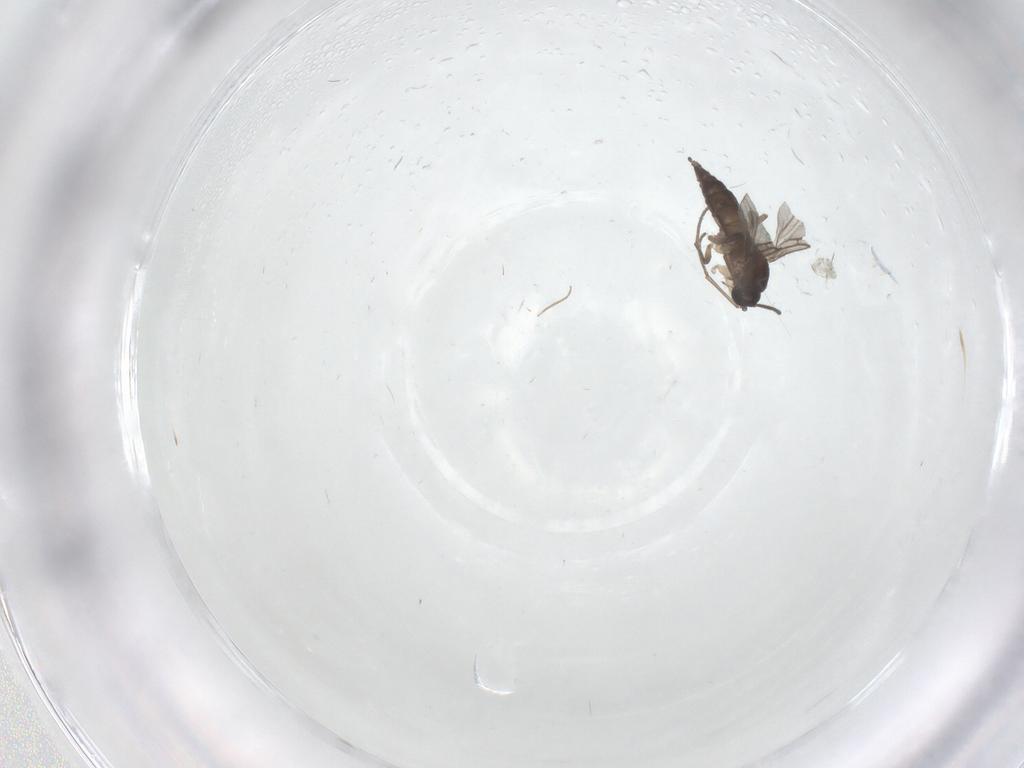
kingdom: Animalia
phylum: Arthropoda
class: Insecta
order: Diptera
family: Sciaridae
